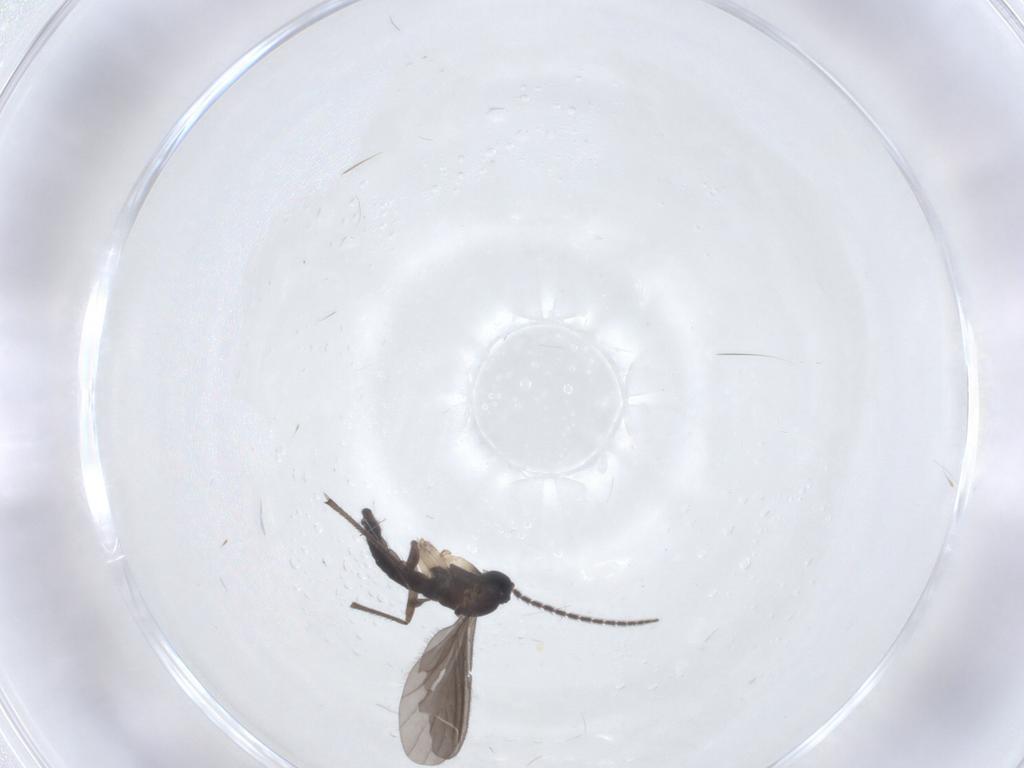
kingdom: Animalia
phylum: Arthropoda
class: Insecta
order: Diptera
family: Sciaridae
